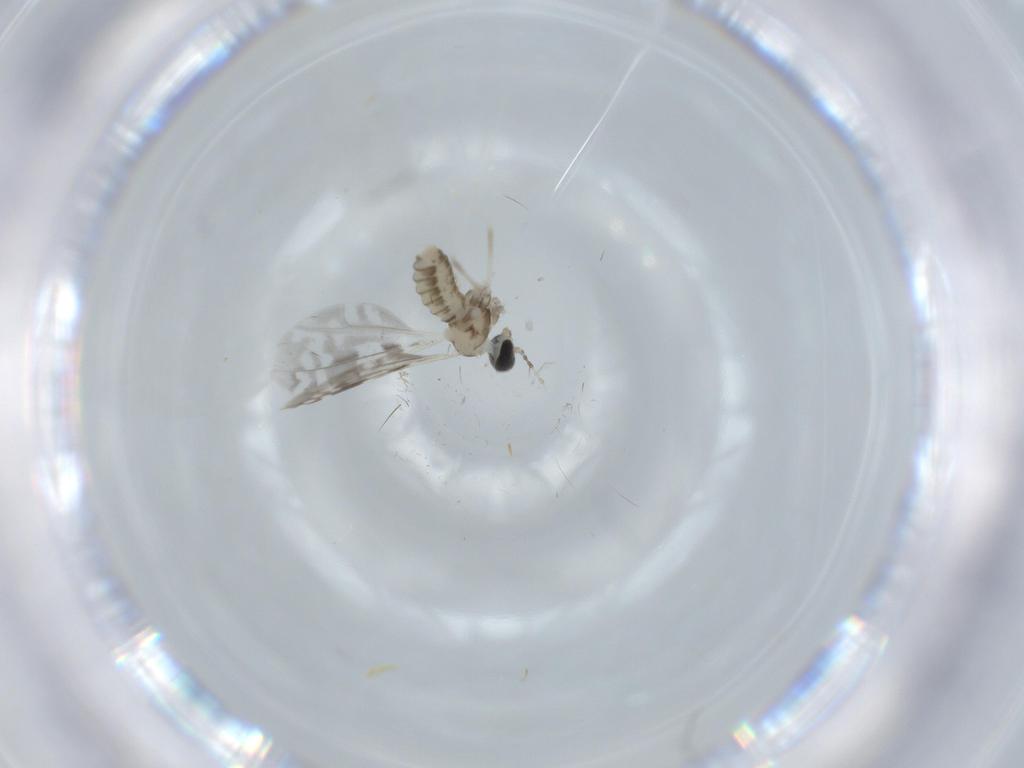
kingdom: Animalia
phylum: Arthropoda
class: Insecta
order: Diptera
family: Cecidomyiidae
